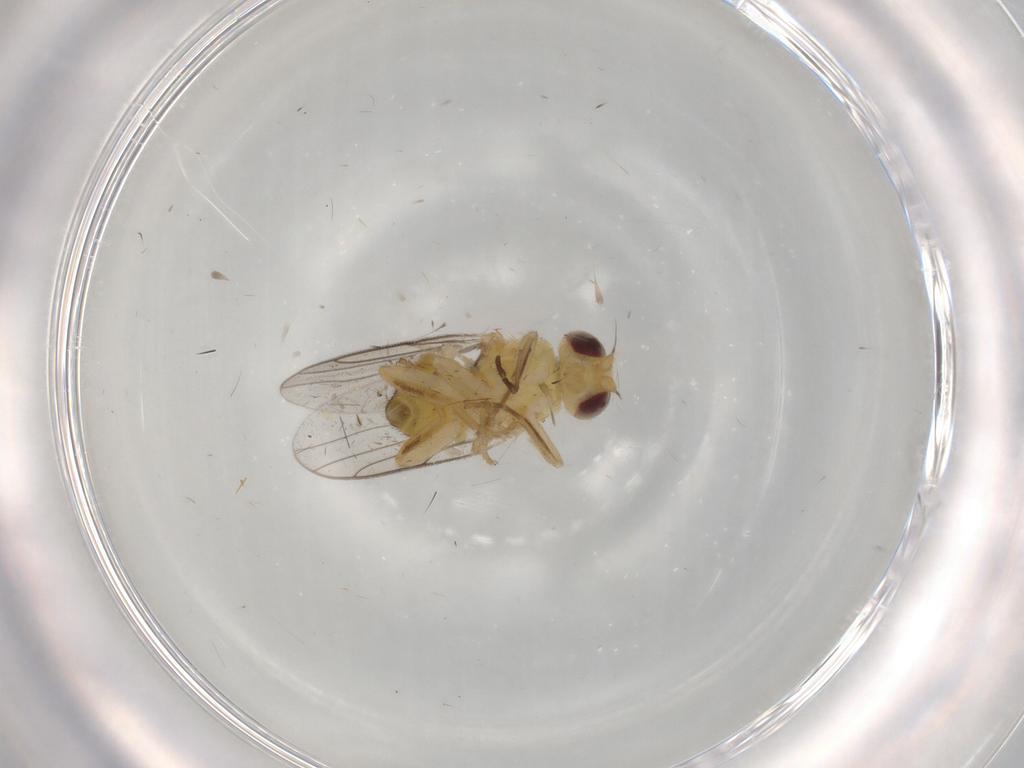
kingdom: Animalia
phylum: Arthropoda
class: Insecta
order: Diptera
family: Chloropidae
